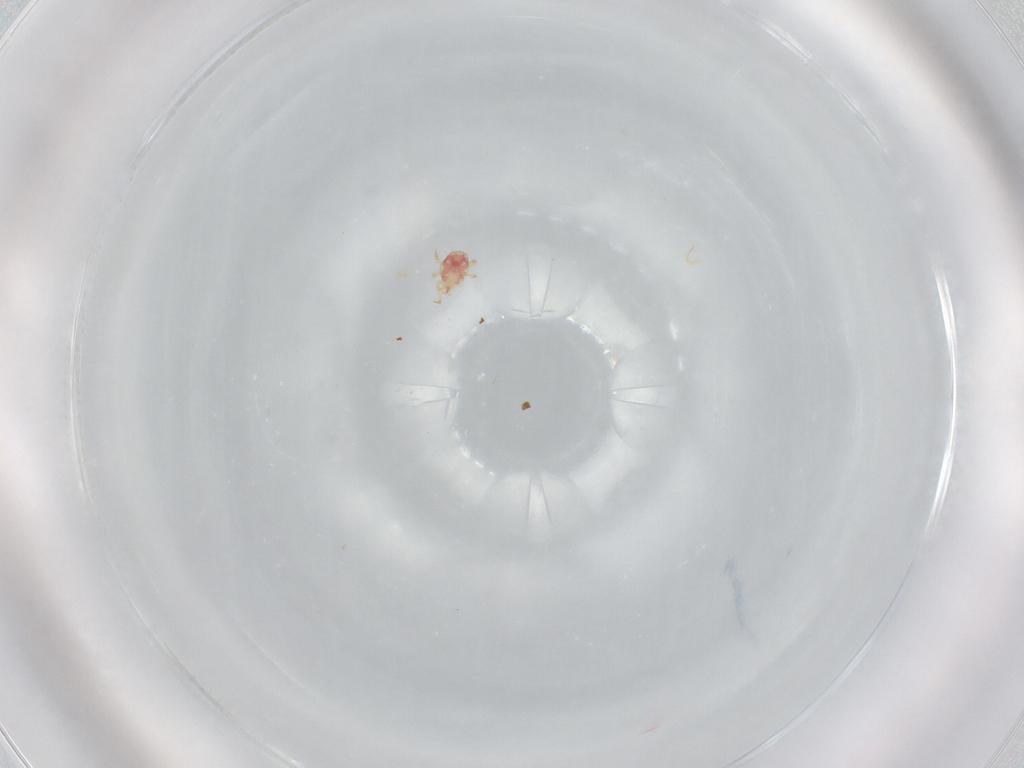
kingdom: Animalia
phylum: Arthropoda
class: Arachnida
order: Mesostigmata
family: Phytoseiidae
